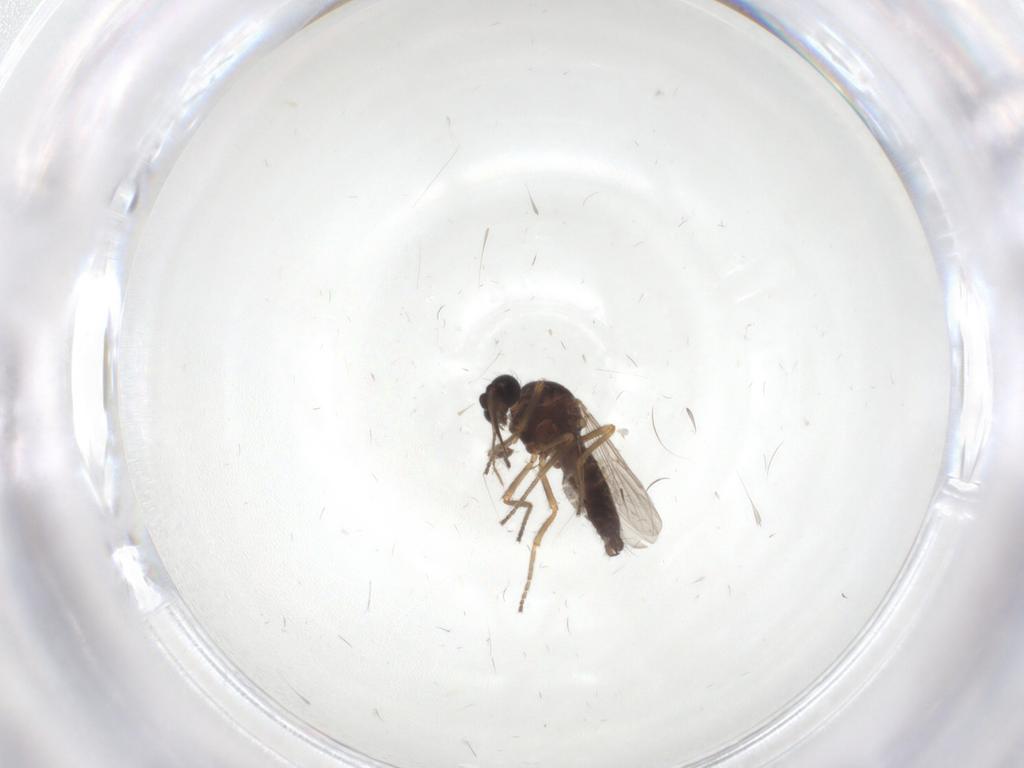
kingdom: Animalia
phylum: Arthropoda
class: Insecta
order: Diptera
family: Ceratopogonidae
